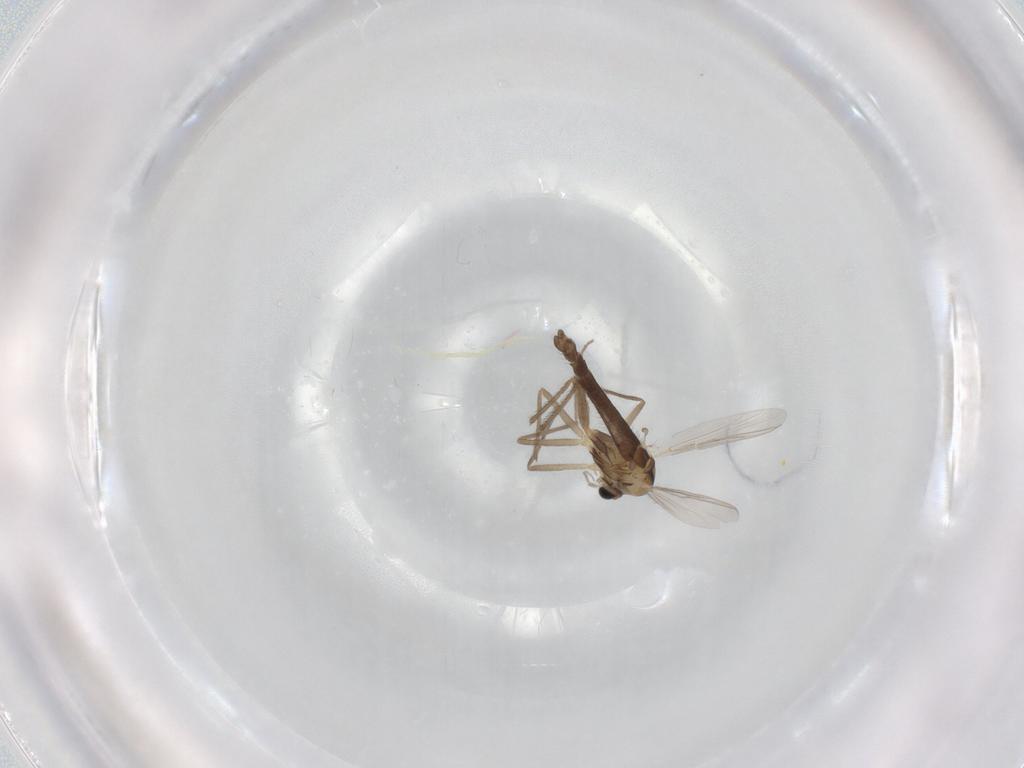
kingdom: Animalia
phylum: Arthropoda
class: Insecta
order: Diptera
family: Chironomidae
